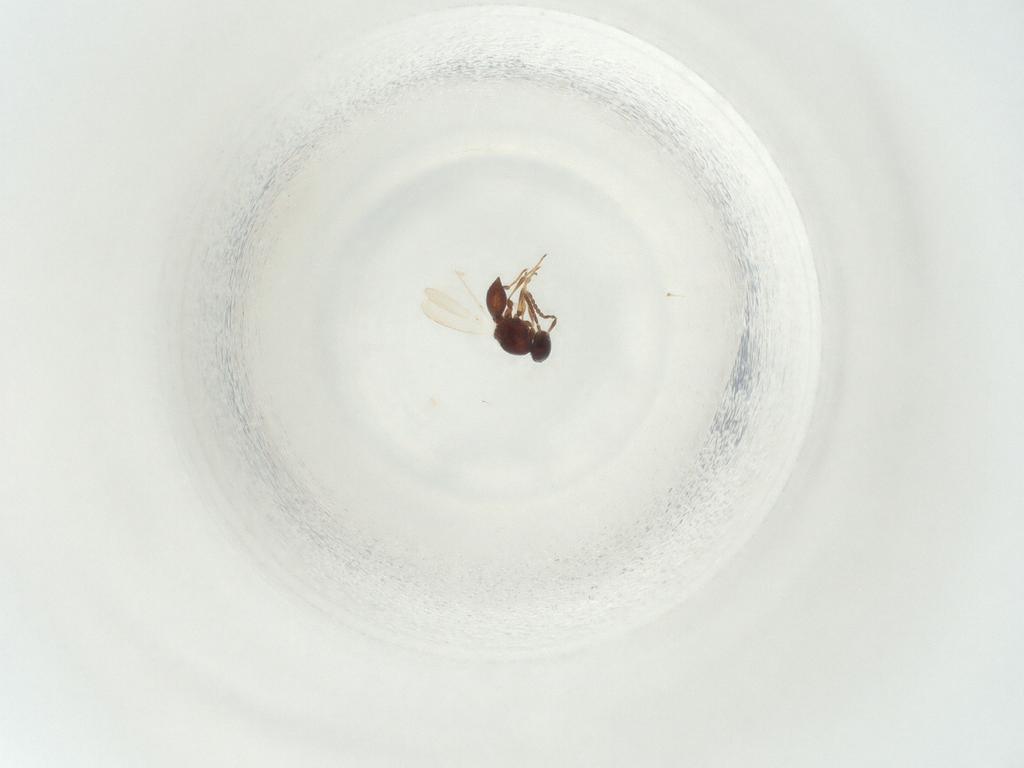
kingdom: Animalia
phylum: Arthropoda
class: Insecta
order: Hymenoptera
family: Platygastridae
